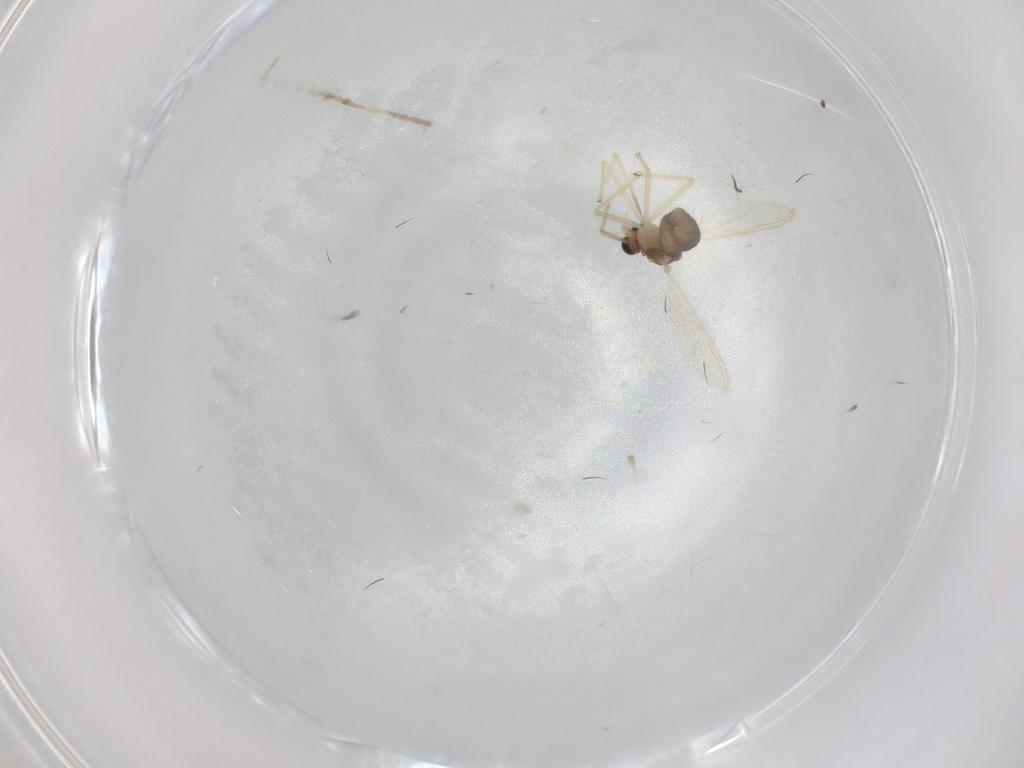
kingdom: Animalia
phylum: Arthropoda
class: Insecta
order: Diptera
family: Chironomidae
